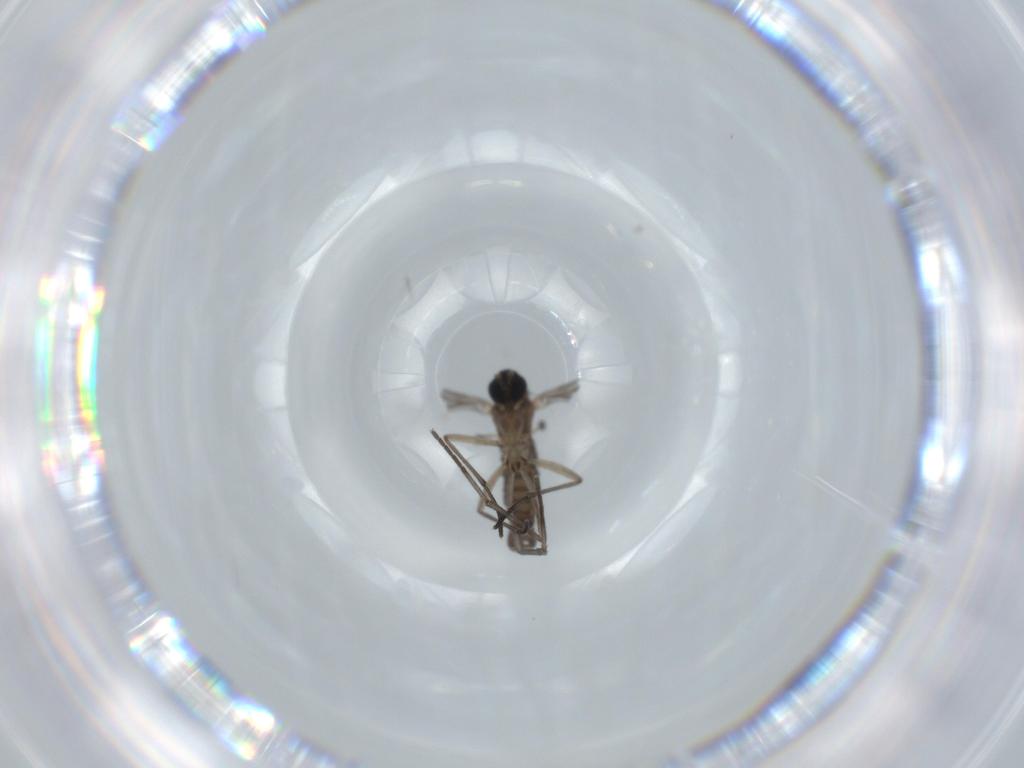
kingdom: Animalia
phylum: Arthropoda
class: Insecta
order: Diptera
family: Sciaridae
